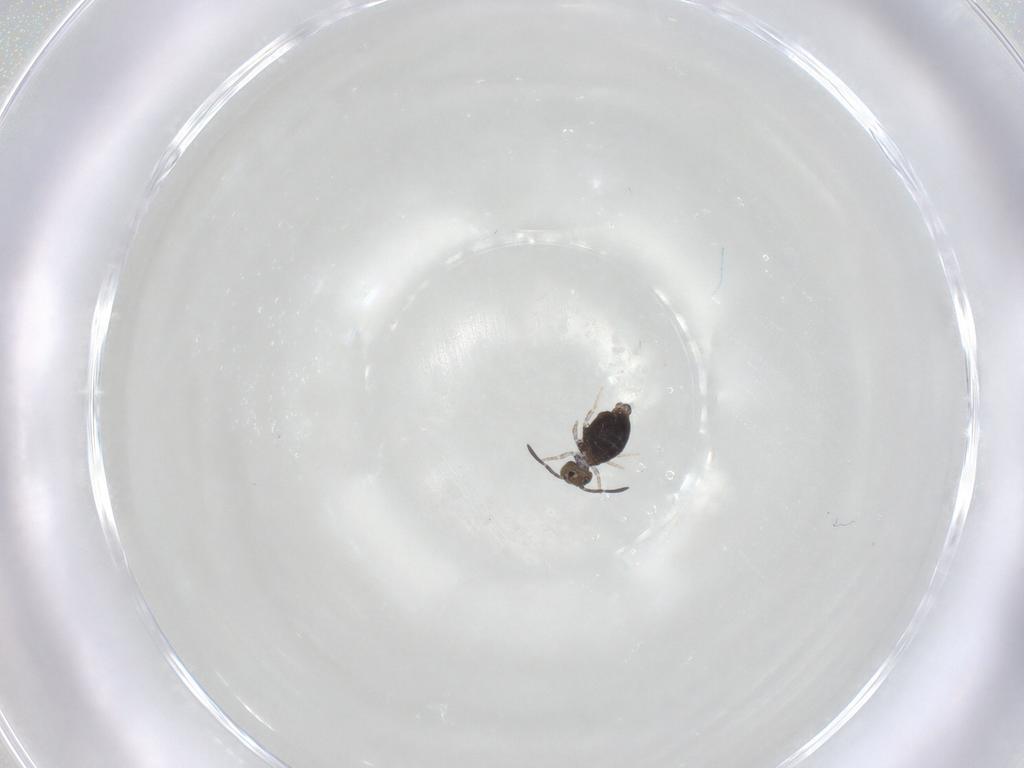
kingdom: Animalia
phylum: Arthropoda
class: Collembola
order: Symphypleona
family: Katiannidae
